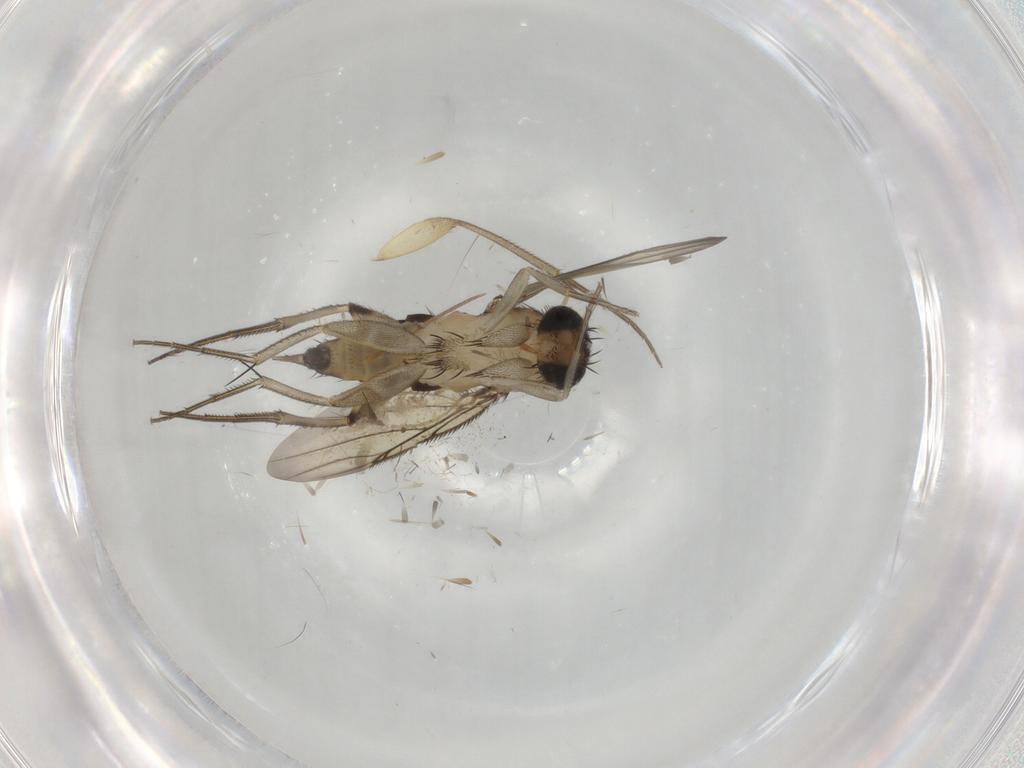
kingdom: Animalia
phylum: Arthropoda
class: Insecta
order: Diptera
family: Phoridae
